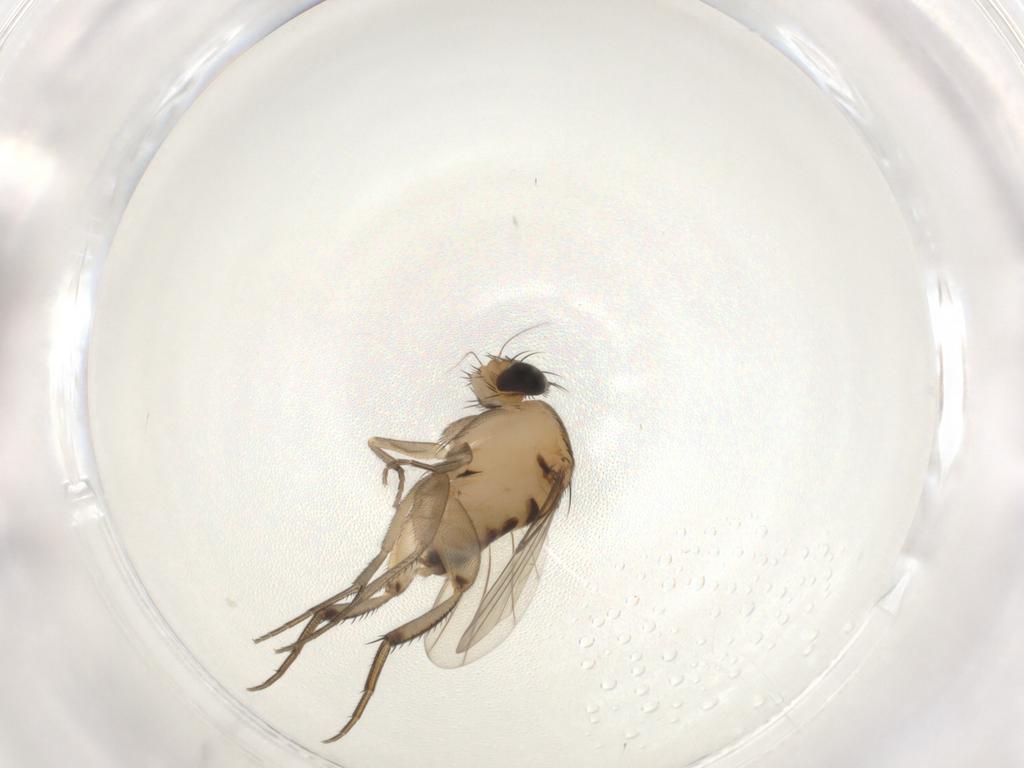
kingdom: Animalia
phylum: Arthropoda
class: Insecta
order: Diptera
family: Phoridae
